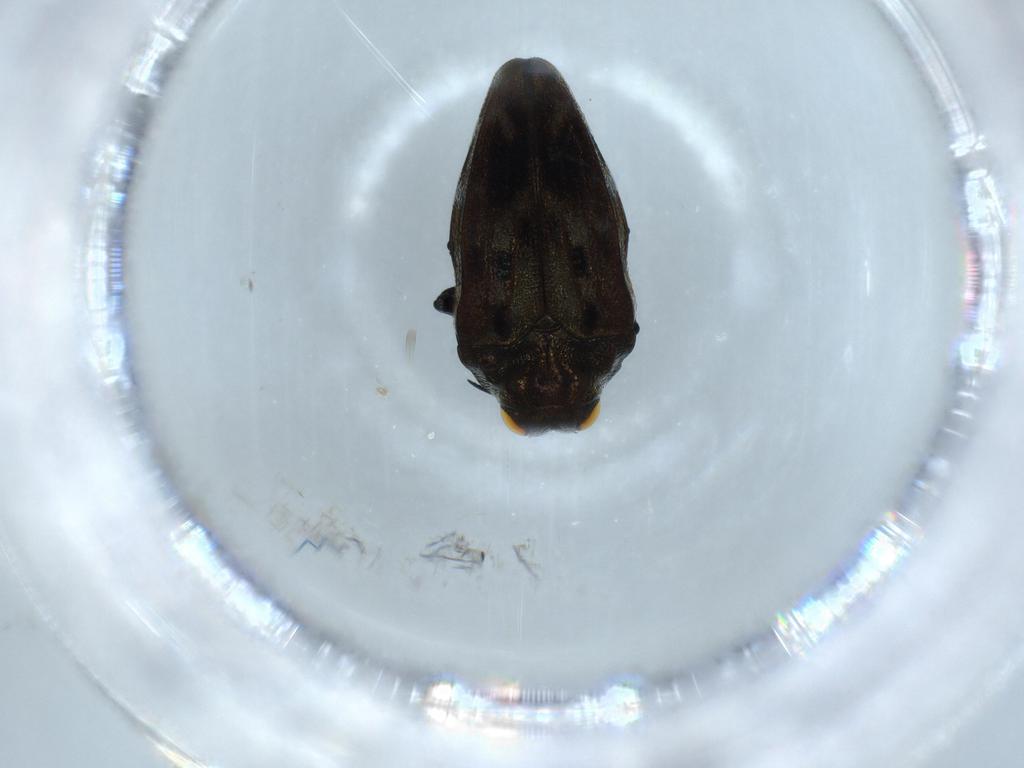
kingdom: Animalia
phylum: Arthropoda
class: Insecta
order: Coleoptera
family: Buprestidae
